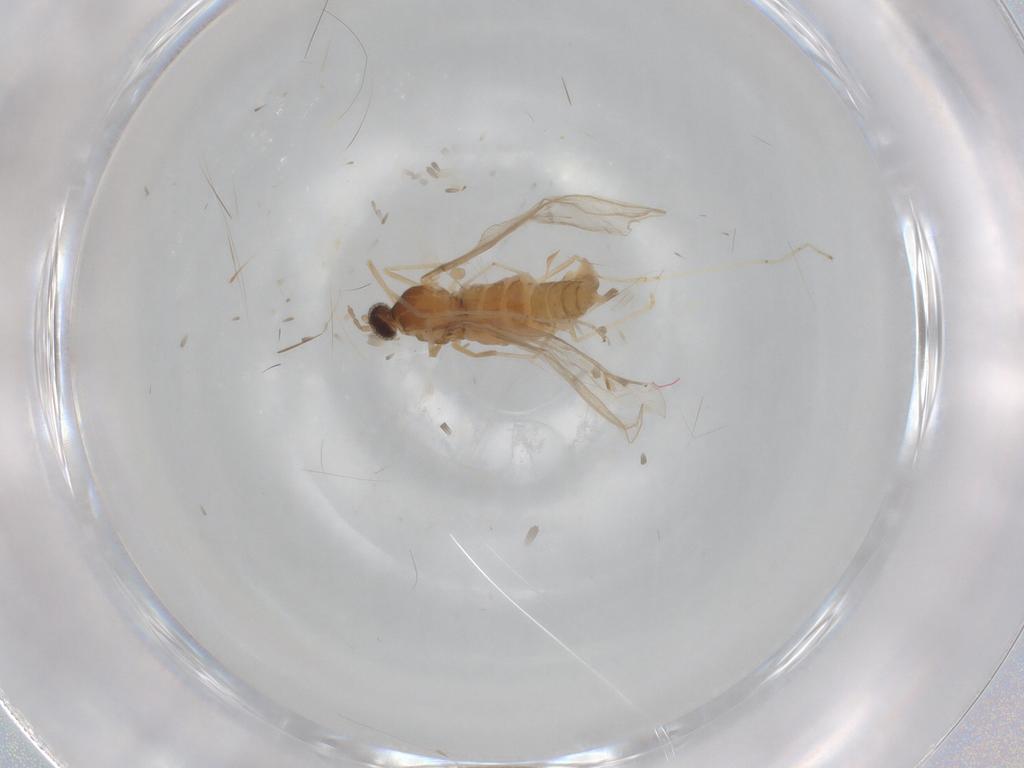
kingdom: Animalia
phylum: Arthropoda
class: Insecta
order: Diptera
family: Cecidomyiidae
